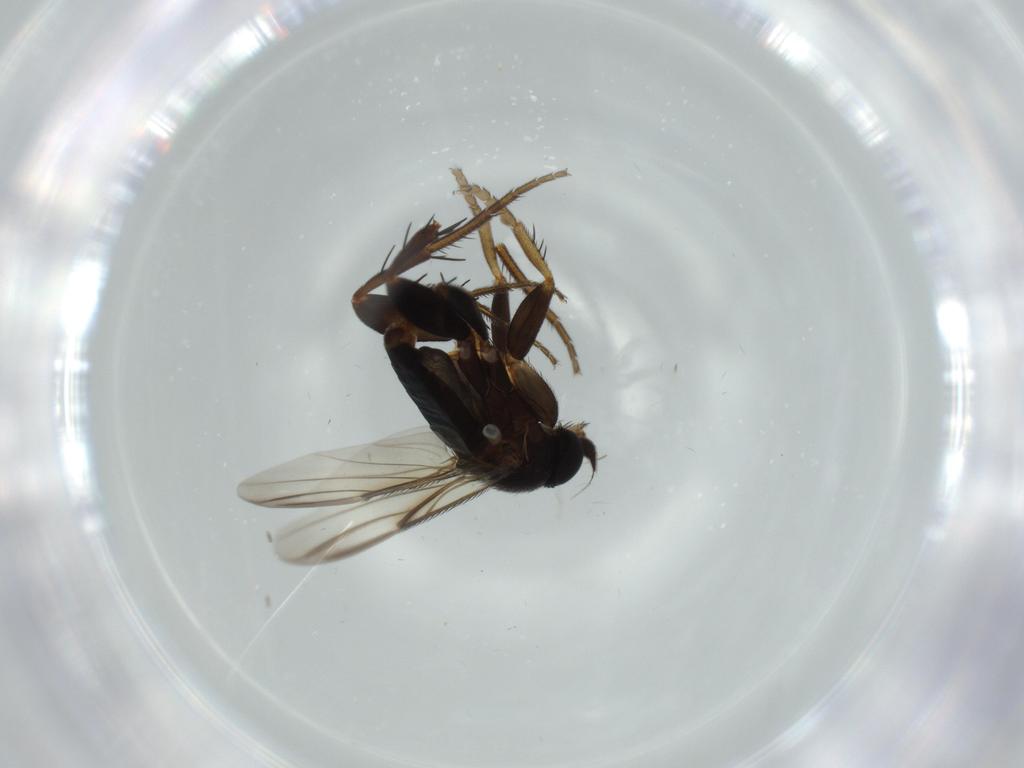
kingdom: Animalia
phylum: Arthropoda
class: Insecta
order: Diptera
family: Phoridae
